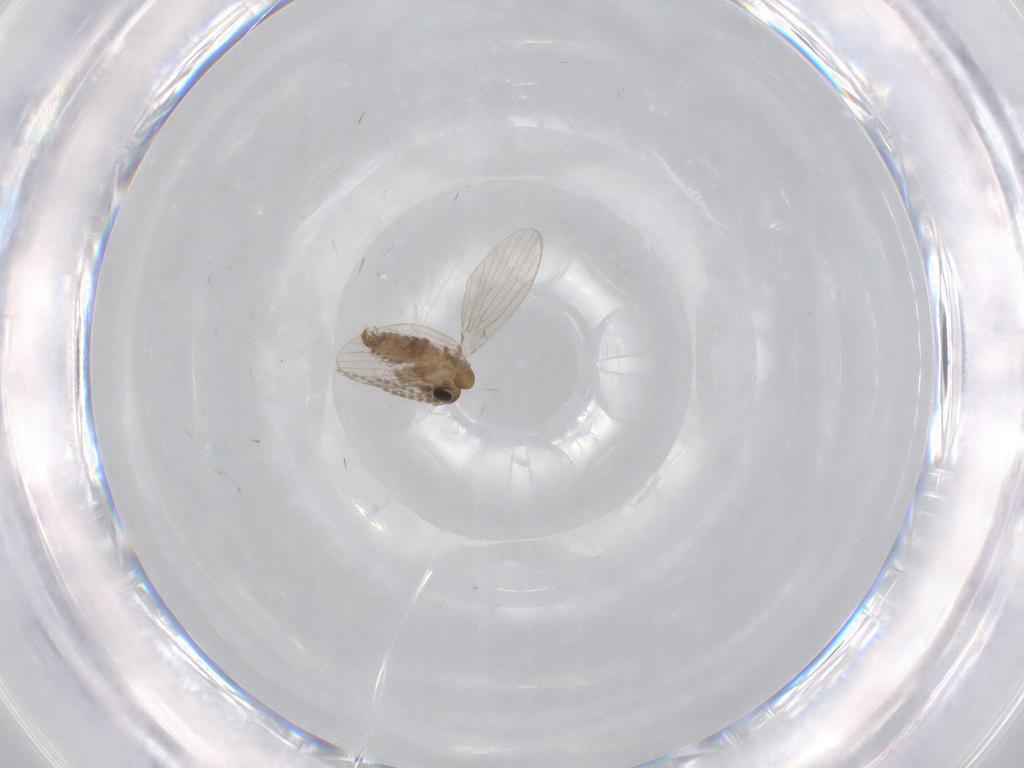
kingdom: Animalia
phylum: Arthropoda
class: Insecta
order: Diptera
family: Psychodidae
